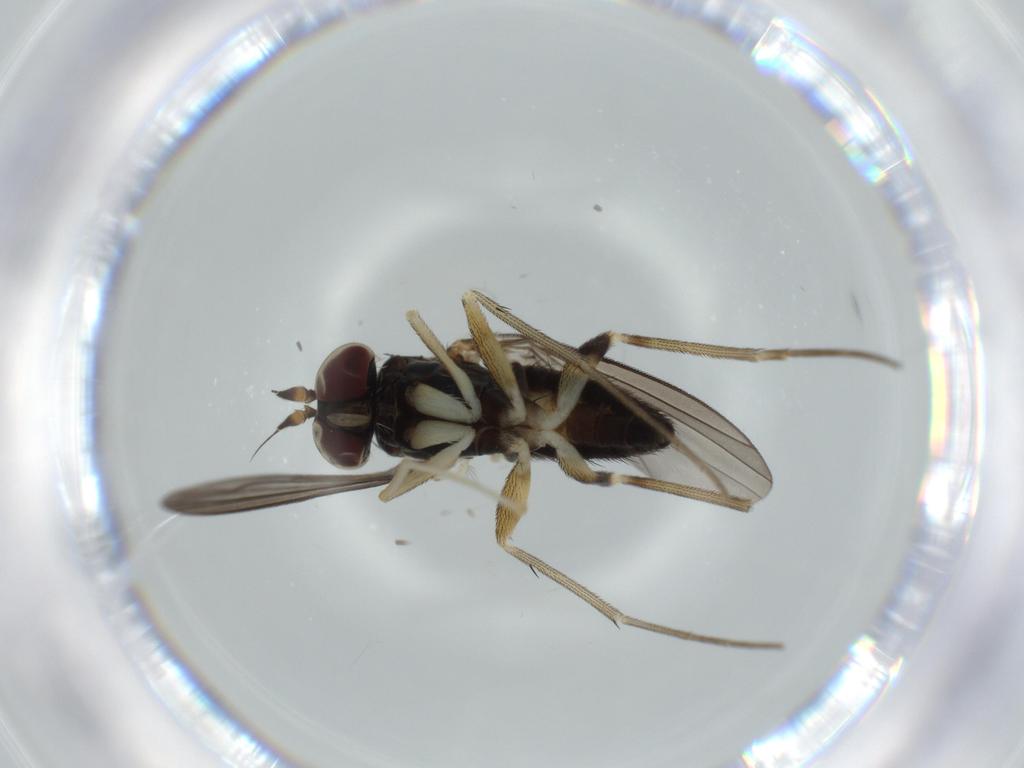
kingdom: Animalia
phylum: Arthropoda
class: Insecta
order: Diptera
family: Dolichopodidae
